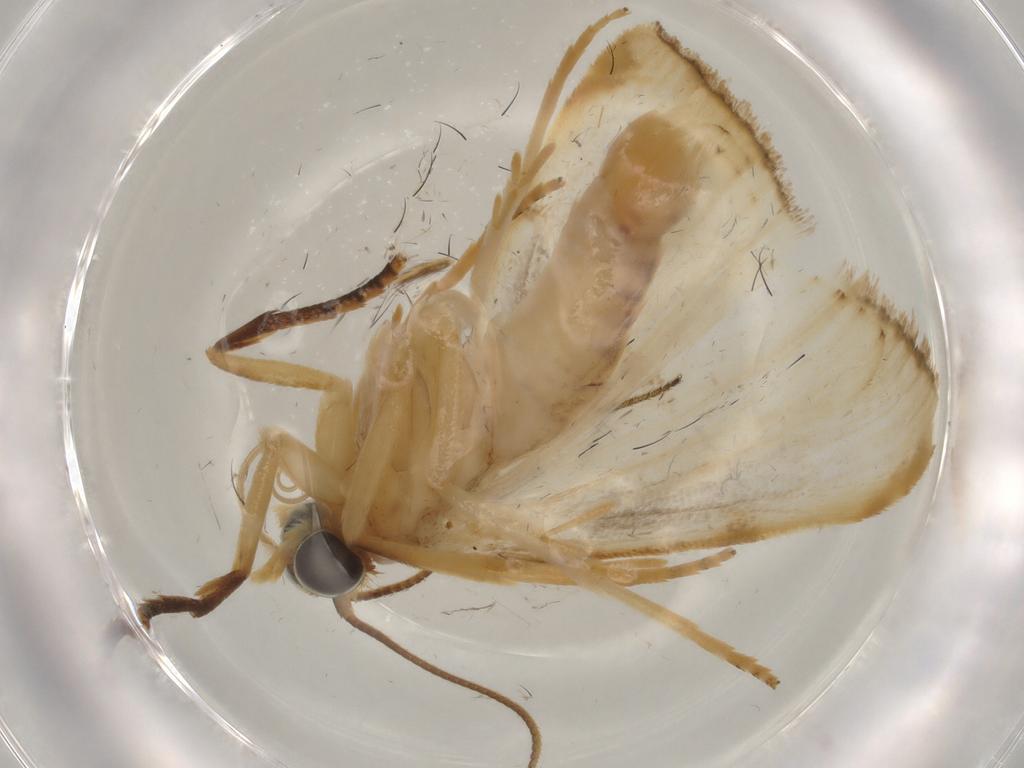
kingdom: Animalia
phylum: Arthropoda
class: Insecta
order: Lepidoptera
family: Crambidae
